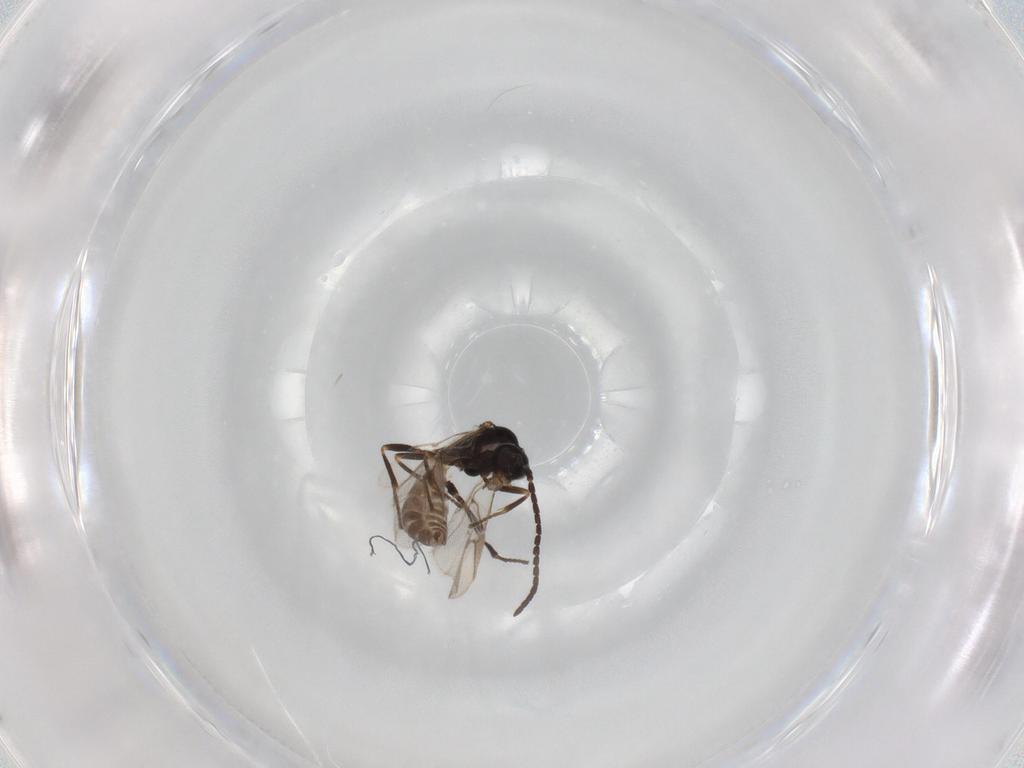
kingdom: Animalia
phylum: Arthropoda
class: Insecta
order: Hymenoptera
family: Braconidae
